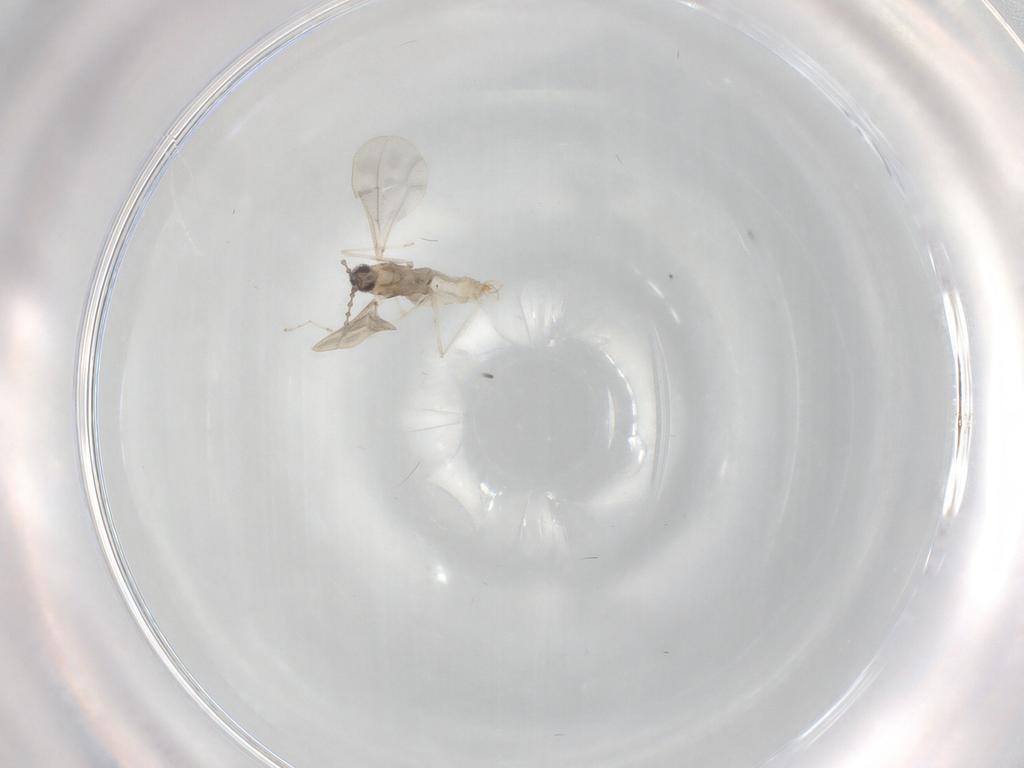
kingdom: Animalia
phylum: Arthropoda
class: Insecta
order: Diptera
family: Cecidomyiidae
